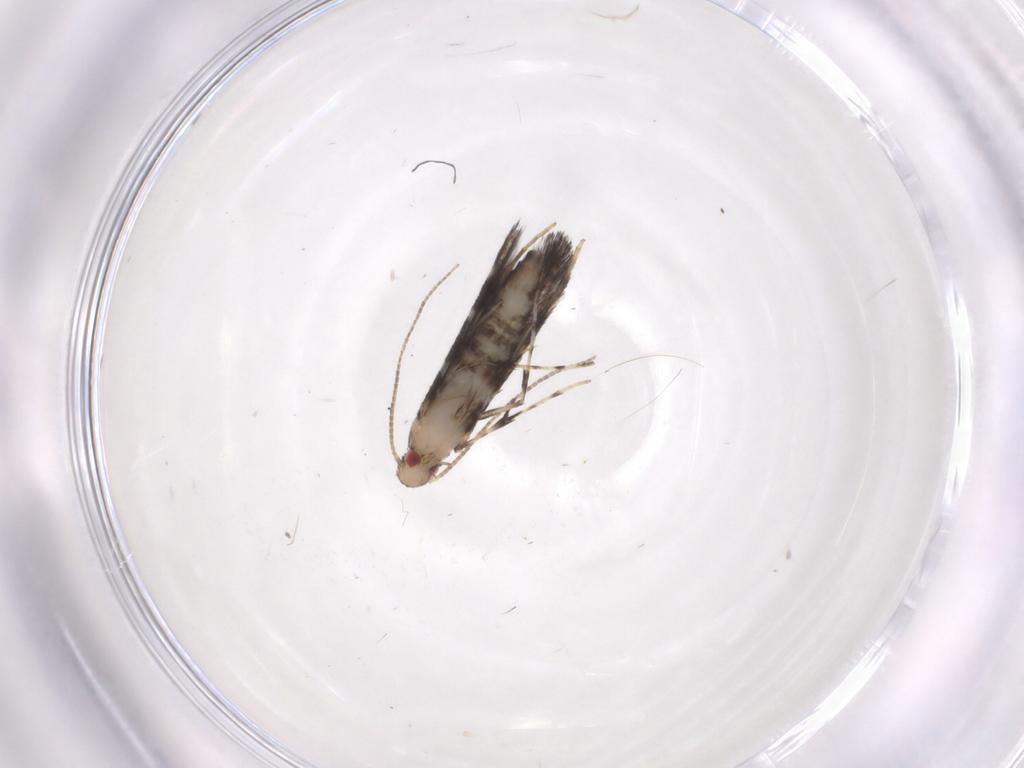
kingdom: Animalia
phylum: Arthropoda
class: Insecta
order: Lepidoptera
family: Gracillariidae
